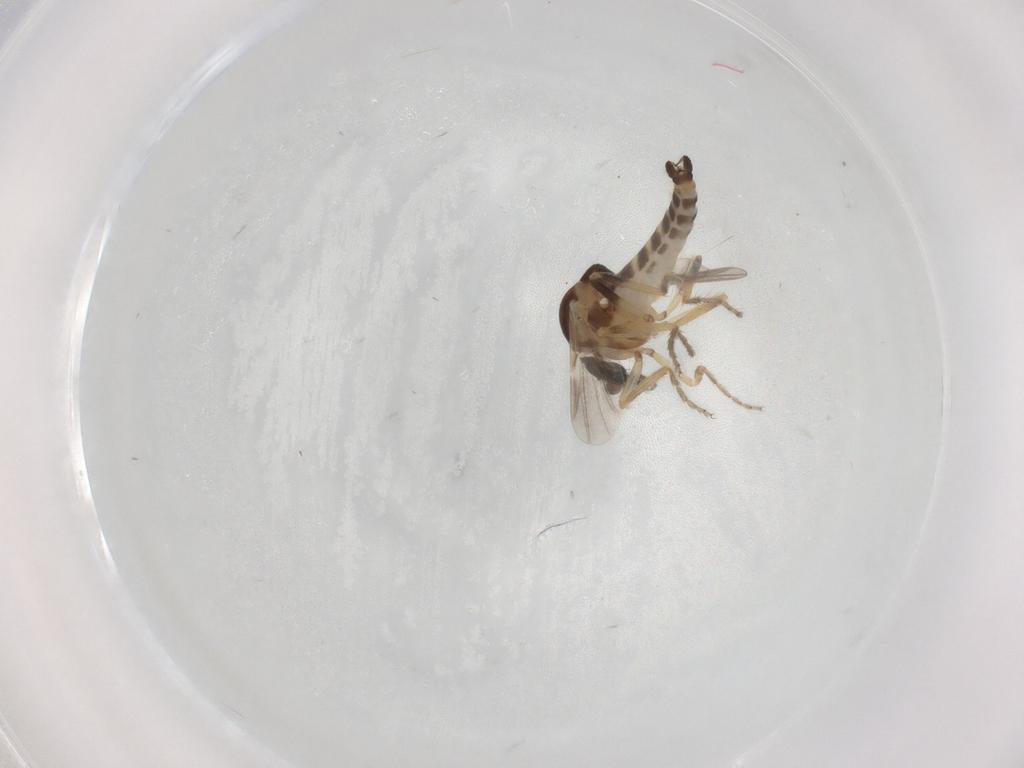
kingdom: Animalia
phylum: Arthropoda
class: Insecta
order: Diptera
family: Ceratopogonidae
